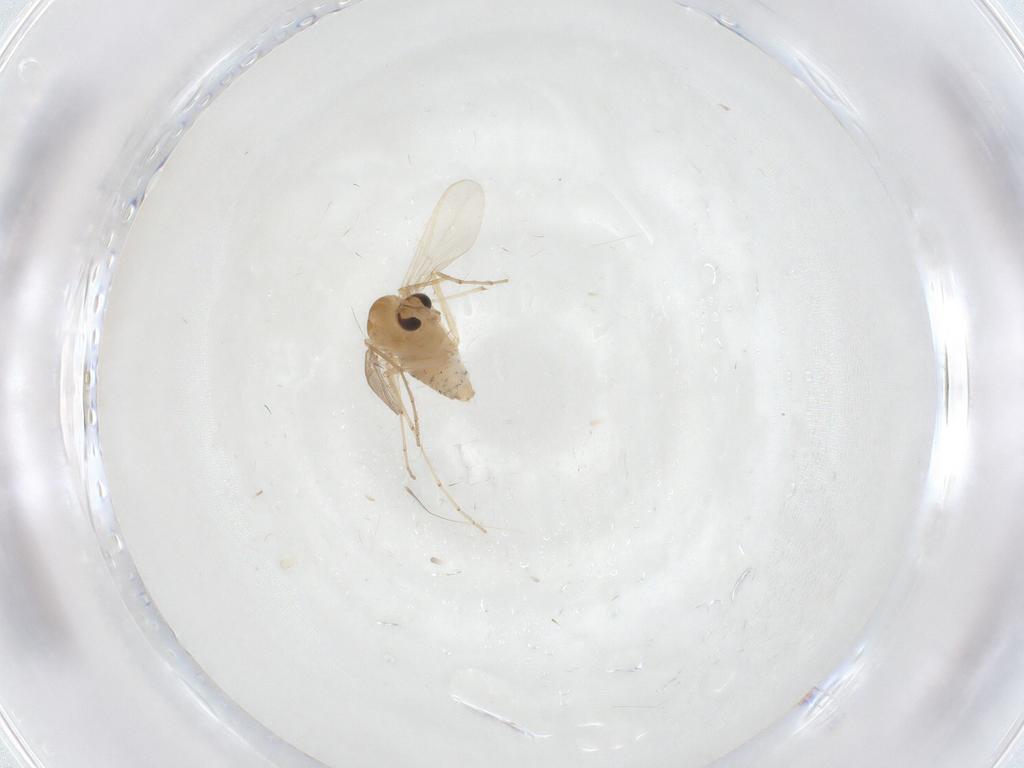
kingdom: Animalia
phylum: Arthropoda
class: Insecta
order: Diptera
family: Chironomidae
